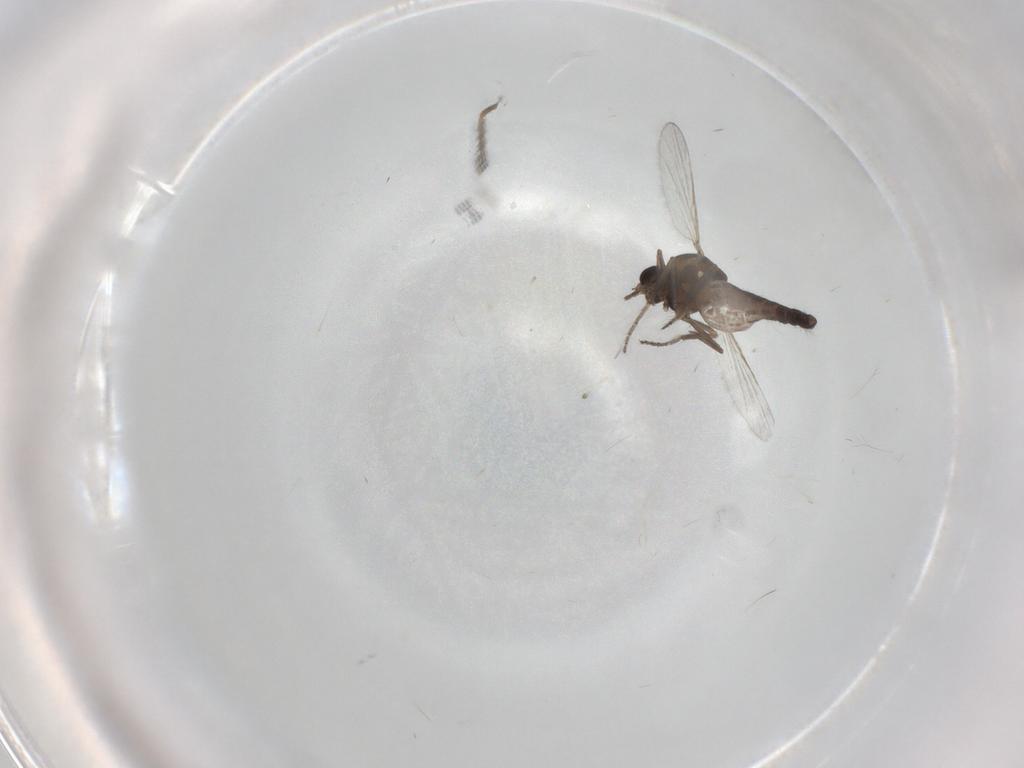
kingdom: Animalia
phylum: Arthropoda
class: Insecta
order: Diptera
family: Ceratopogonidae
